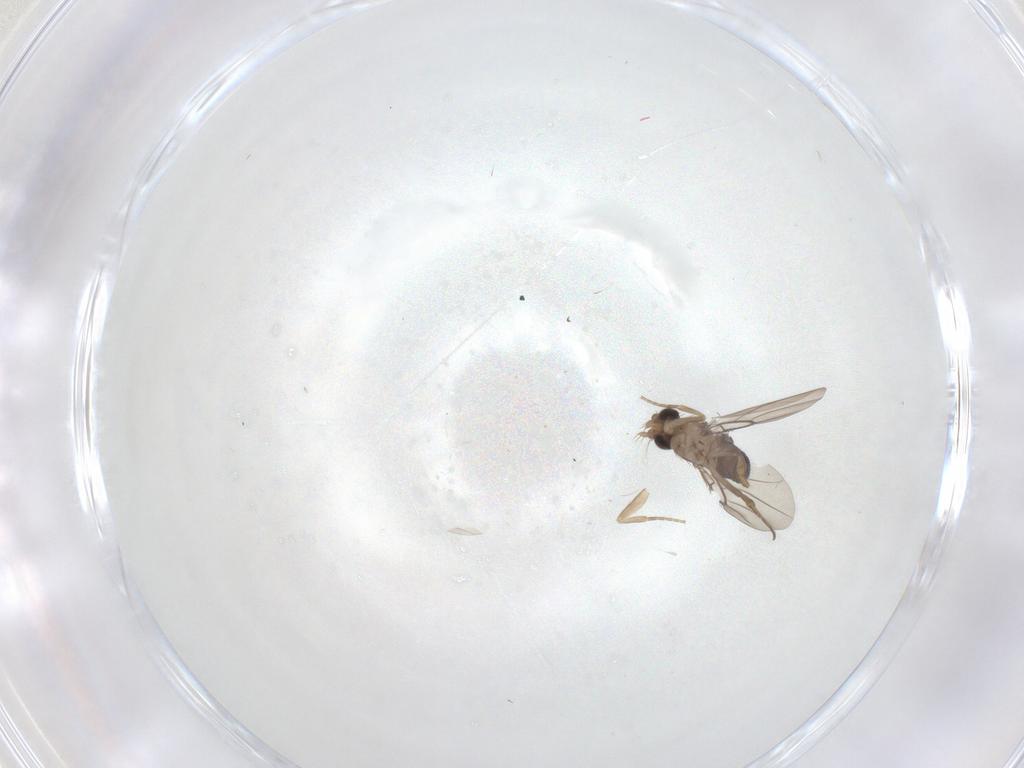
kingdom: Animalia
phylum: Arthropoda
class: Insecta
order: Diptera
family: Phoridae
